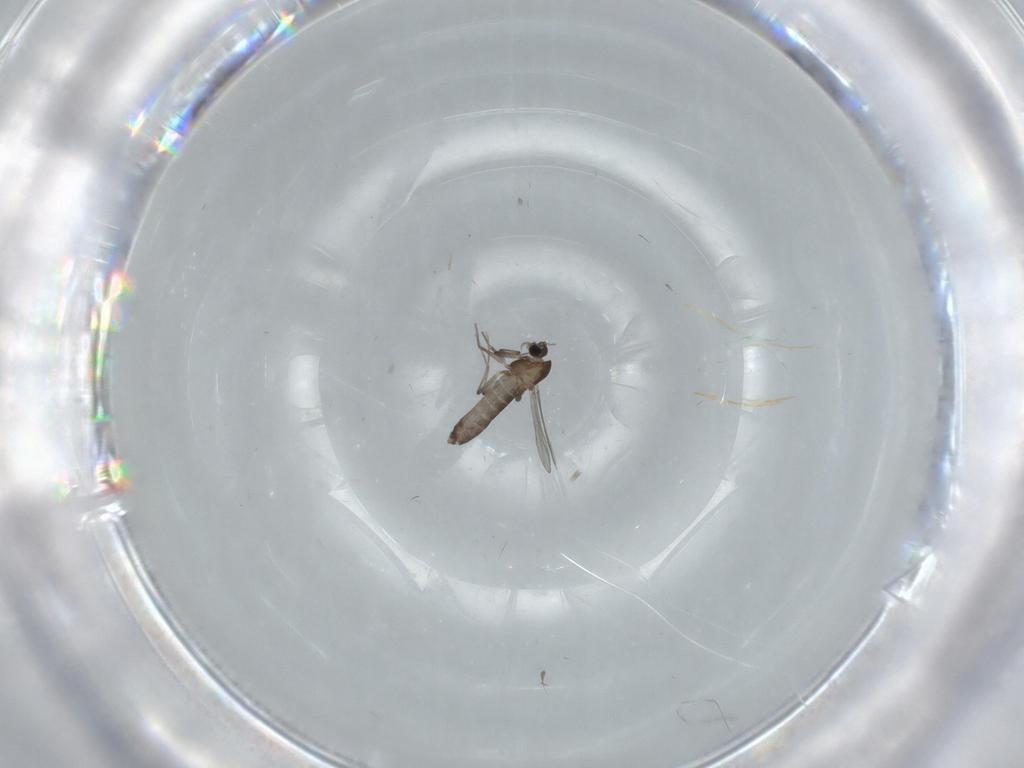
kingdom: Animalia
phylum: Arthropoda
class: Insecta
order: Diptera
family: Chironomidae
